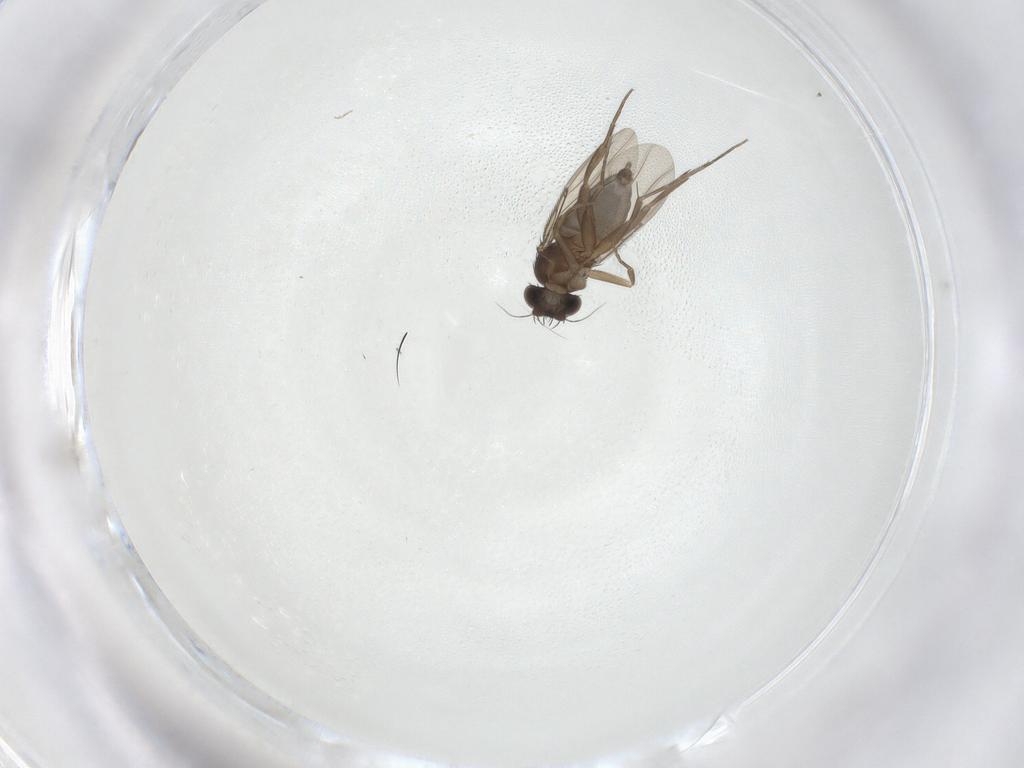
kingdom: Animalia
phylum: Arthropoda
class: Insecta
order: Diptera
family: Phoridae
